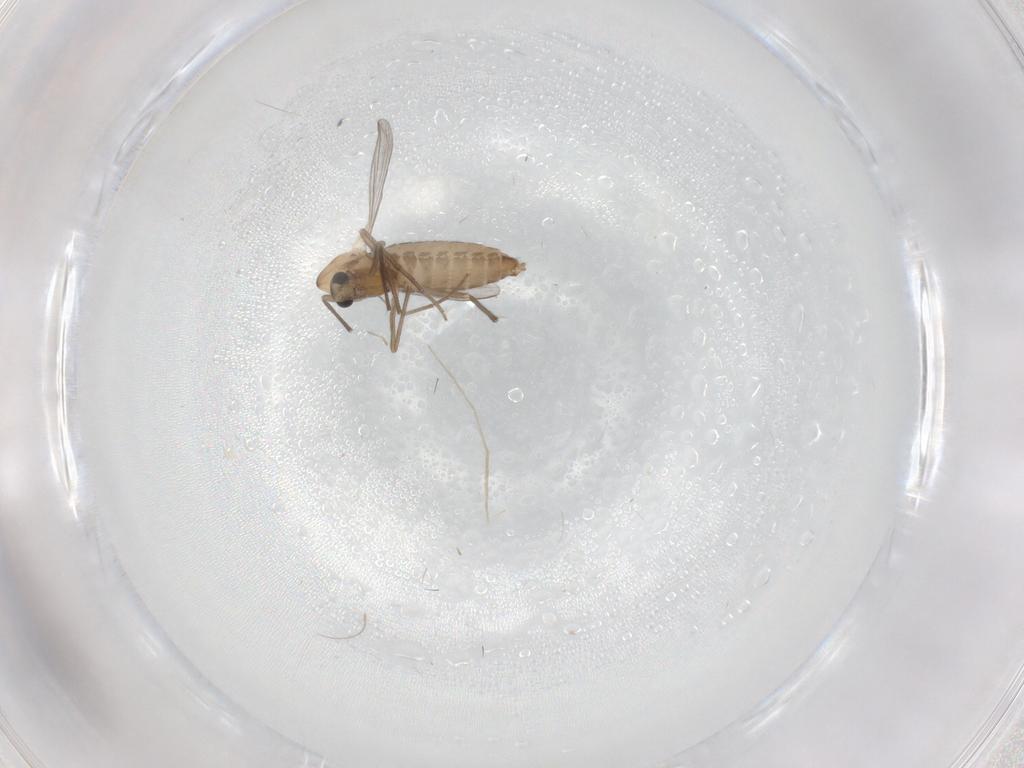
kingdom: Animalia
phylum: Arthropoda
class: Insecta
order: Diptera
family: Chironomidae
